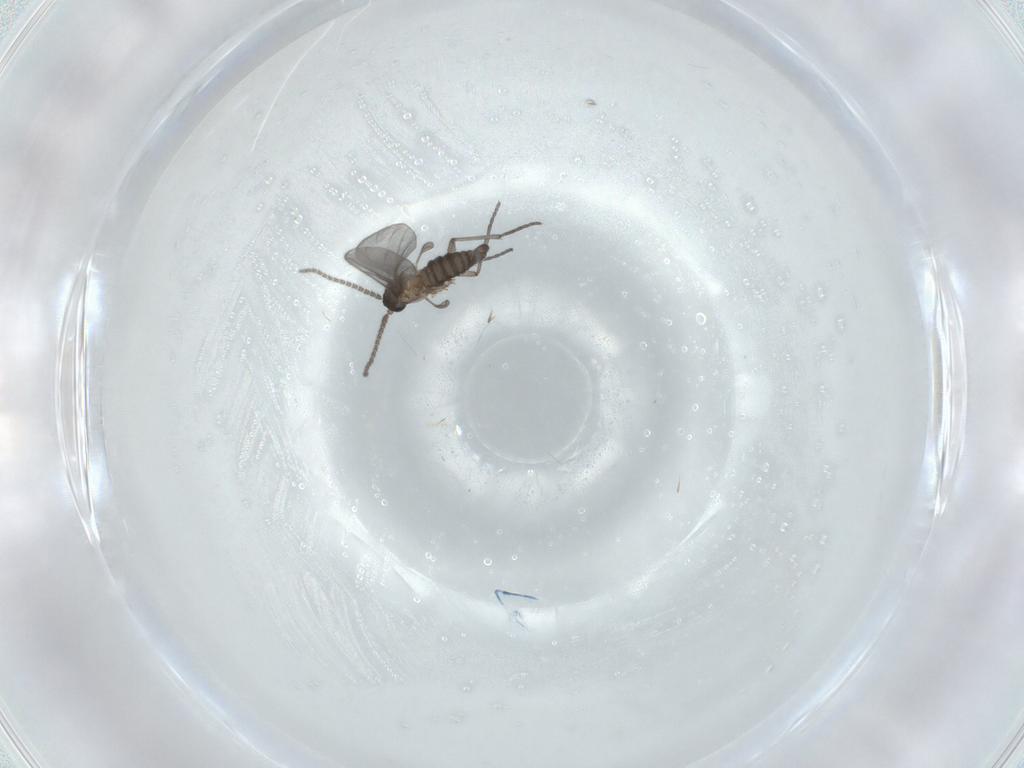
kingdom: Animalia
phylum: Arthropoda
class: Insecta
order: Diptera
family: Sciaridae
